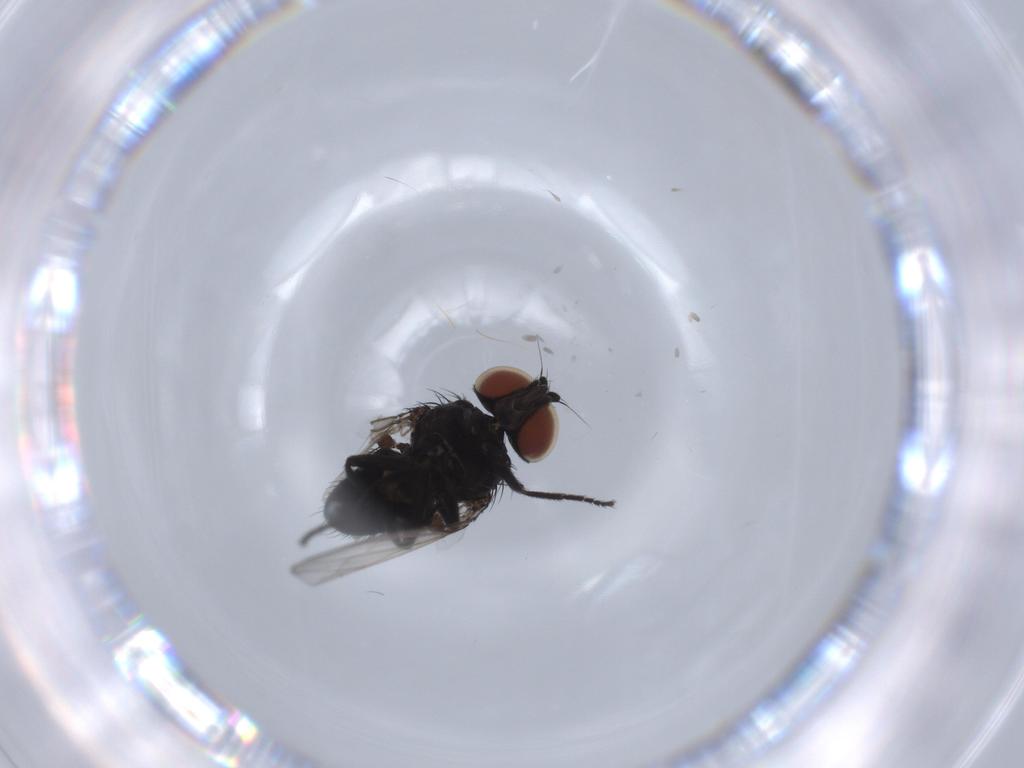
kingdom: Animalia
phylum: Arthropoda
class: Insecta
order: Diptera
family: Milichiidae
